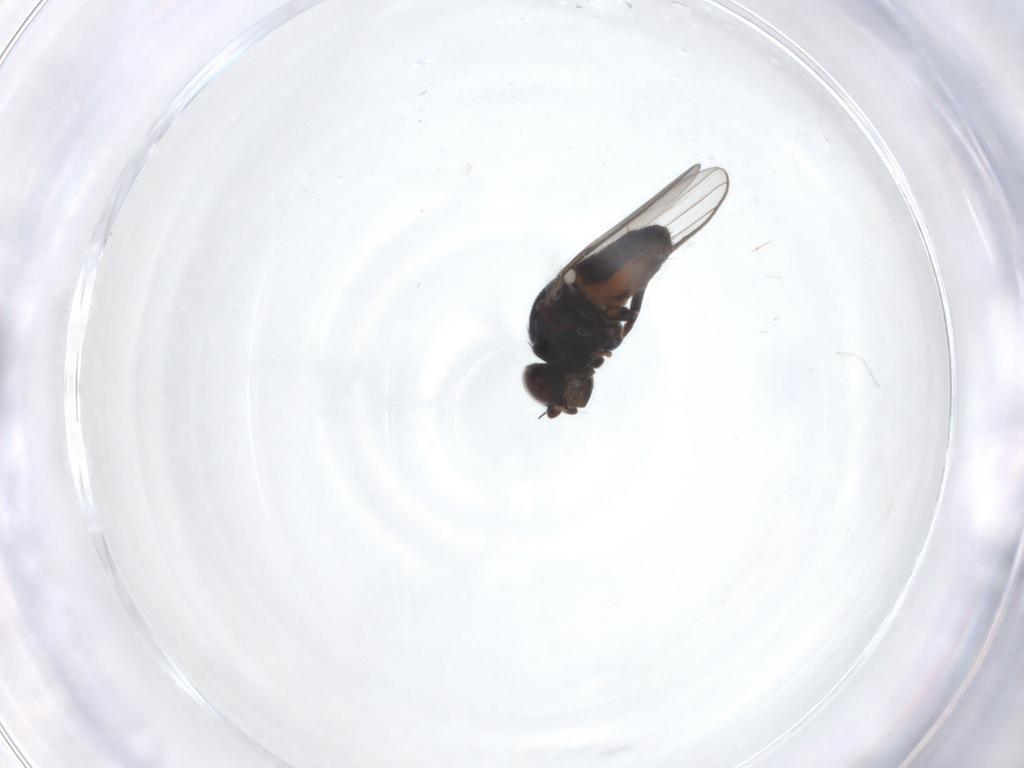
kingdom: Animalia
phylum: Arthropoda
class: Insecta
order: Diptera
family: Chloropidae
